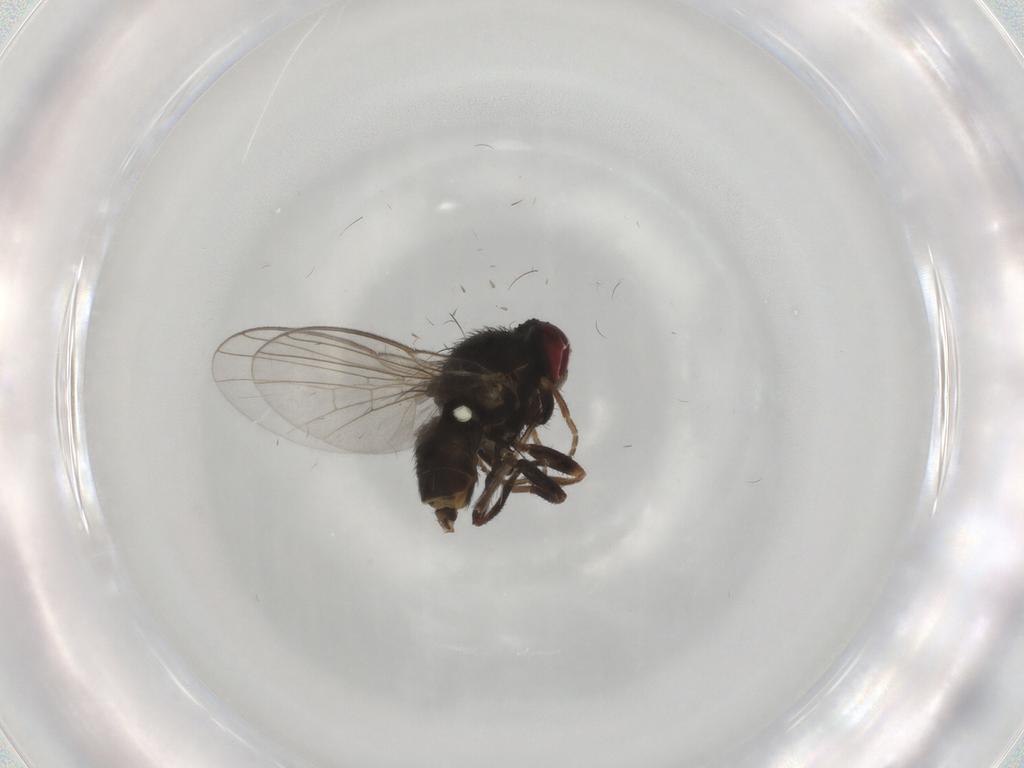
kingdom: Animalia
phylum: Arthropoda
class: Insecta
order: Diptera
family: Muscidae
